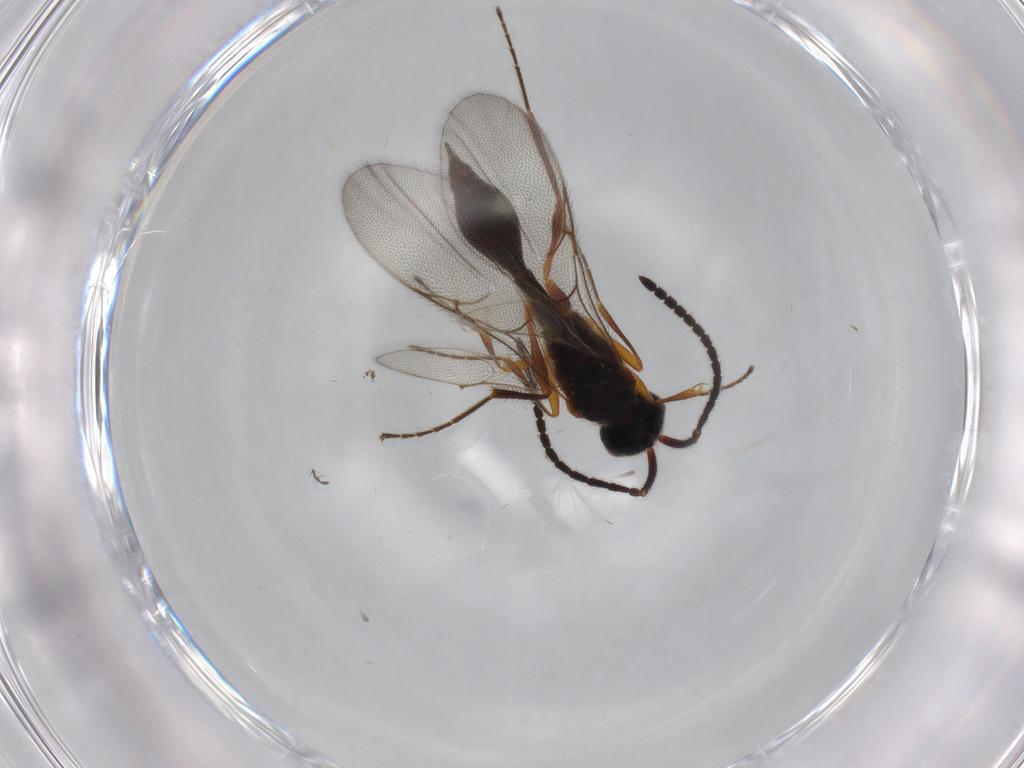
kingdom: Animalia
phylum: Arthropoda
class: Insecta
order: Hymenoptera
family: Diapriidae
